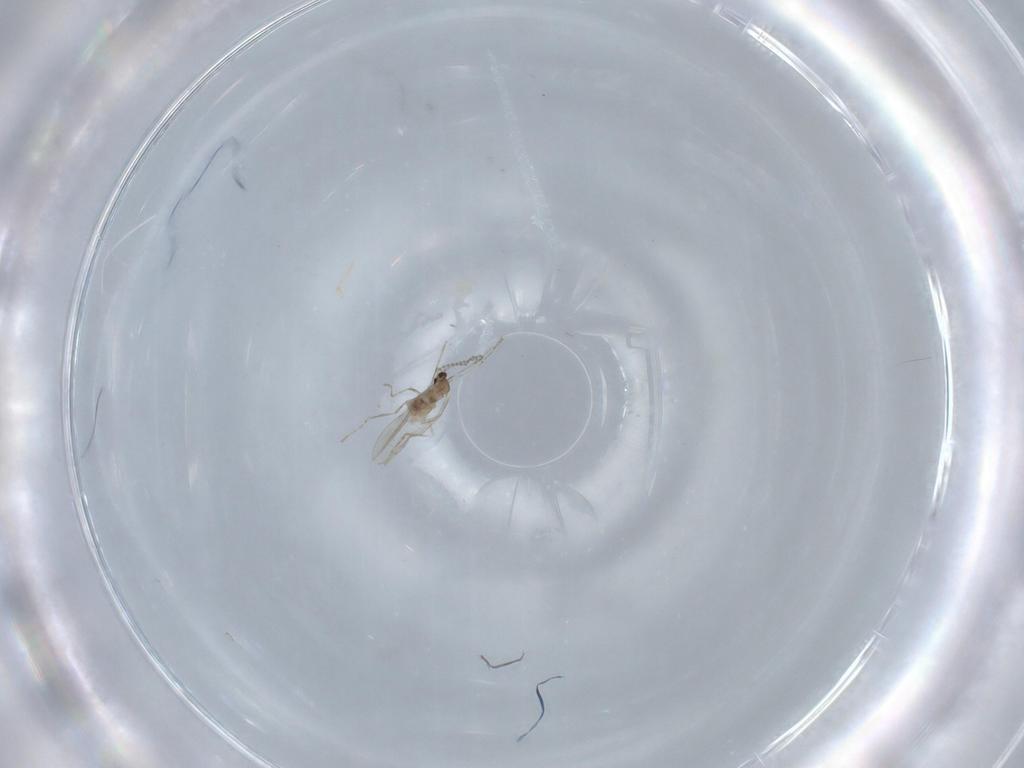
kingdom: Animalia
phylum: Arthropoda
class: Insecta
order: Diptera
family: Cecidomyiidae
